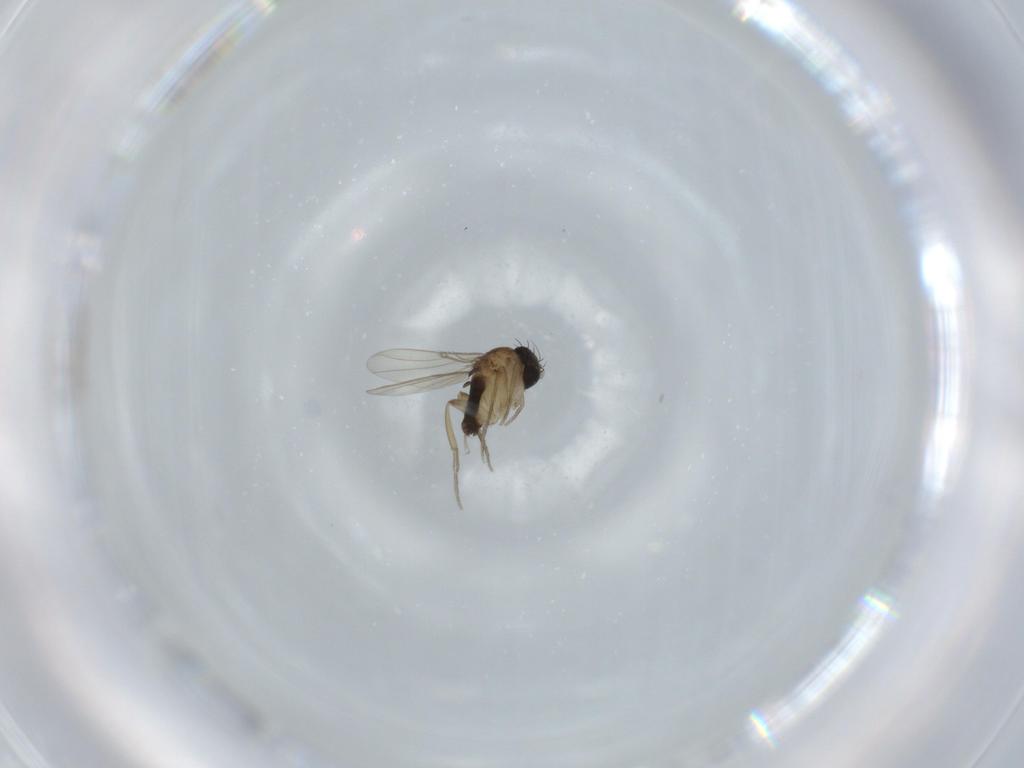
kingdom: Animalia
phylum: Arthropoda
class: Insecta
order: Diptera
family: Phoridae
